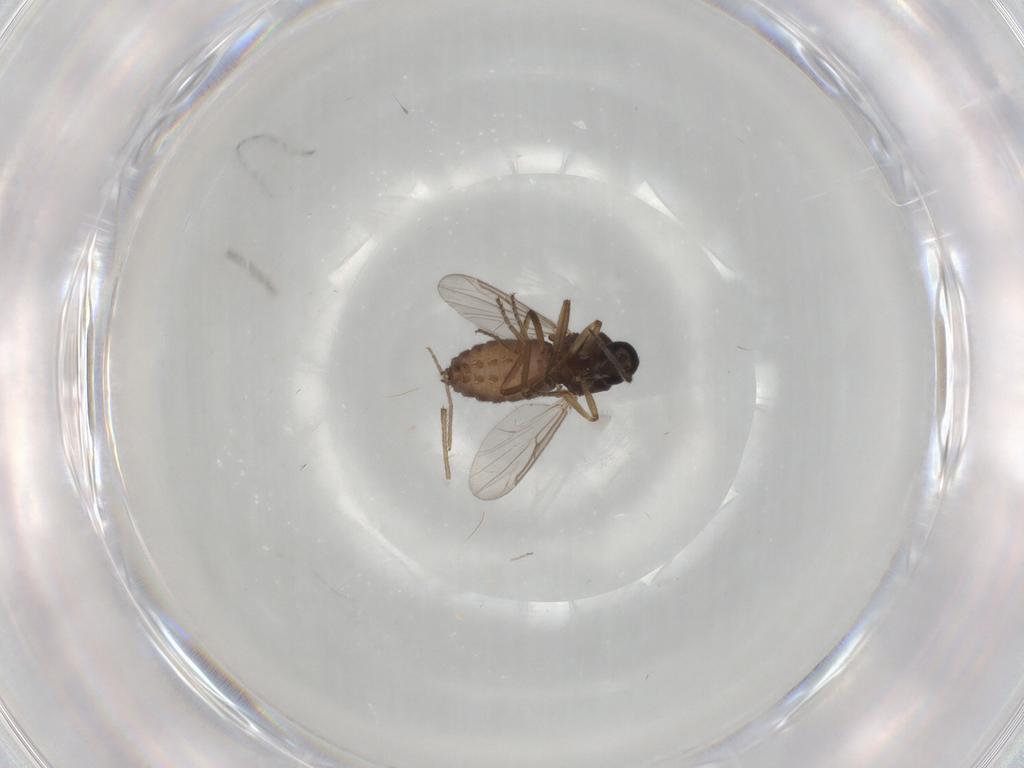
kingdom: Animalia
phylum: Arthropoda
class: Insecta
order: Diptera
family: Ceratopogonidae
